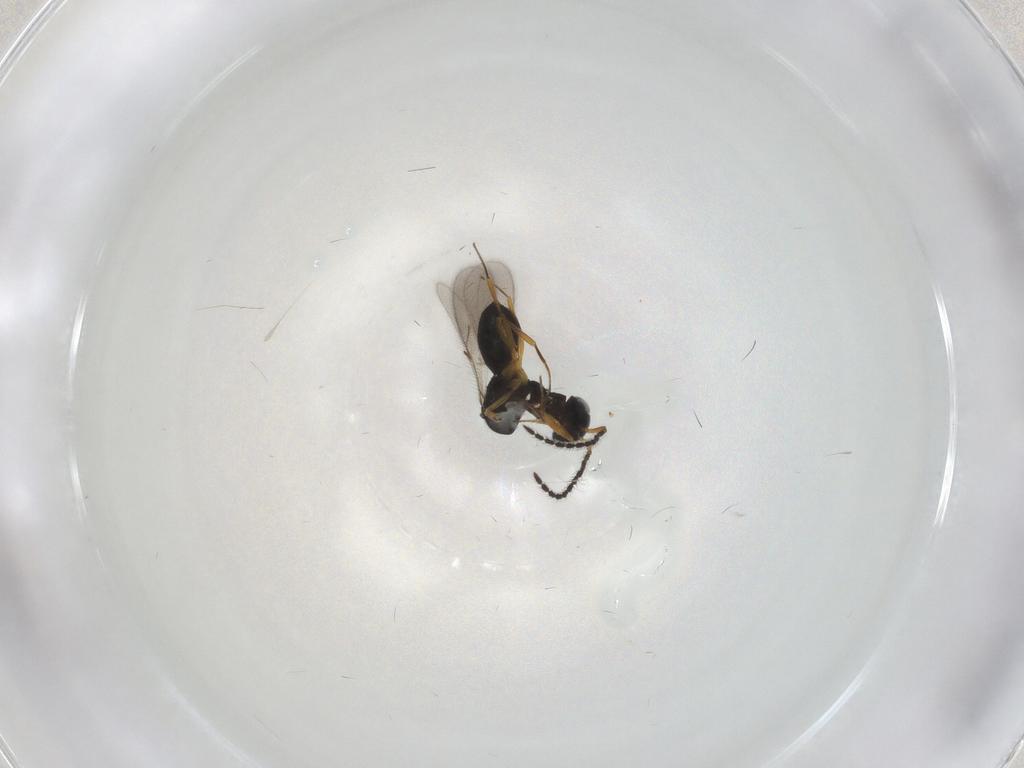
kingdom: Animalia
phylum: Arthropoda
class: Insecta
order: Hymenoptera
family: Scelionidae
